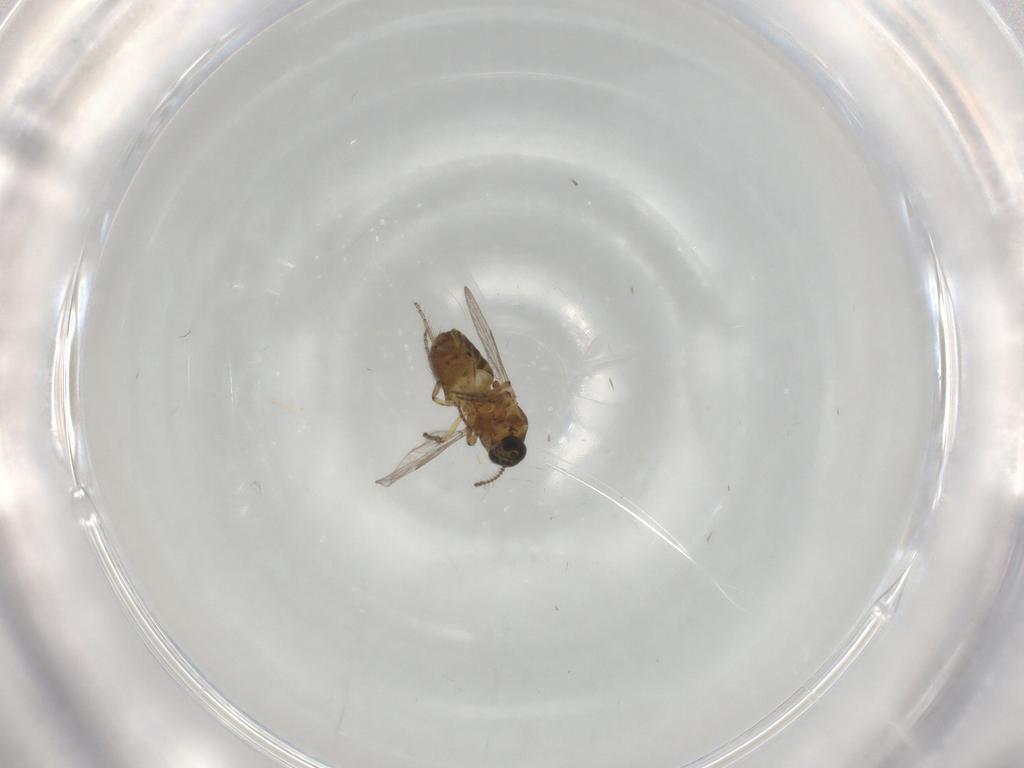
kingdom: Animalia
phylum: Arthropoda
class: Insecta
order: Diptera
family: Ceratopogonidae
